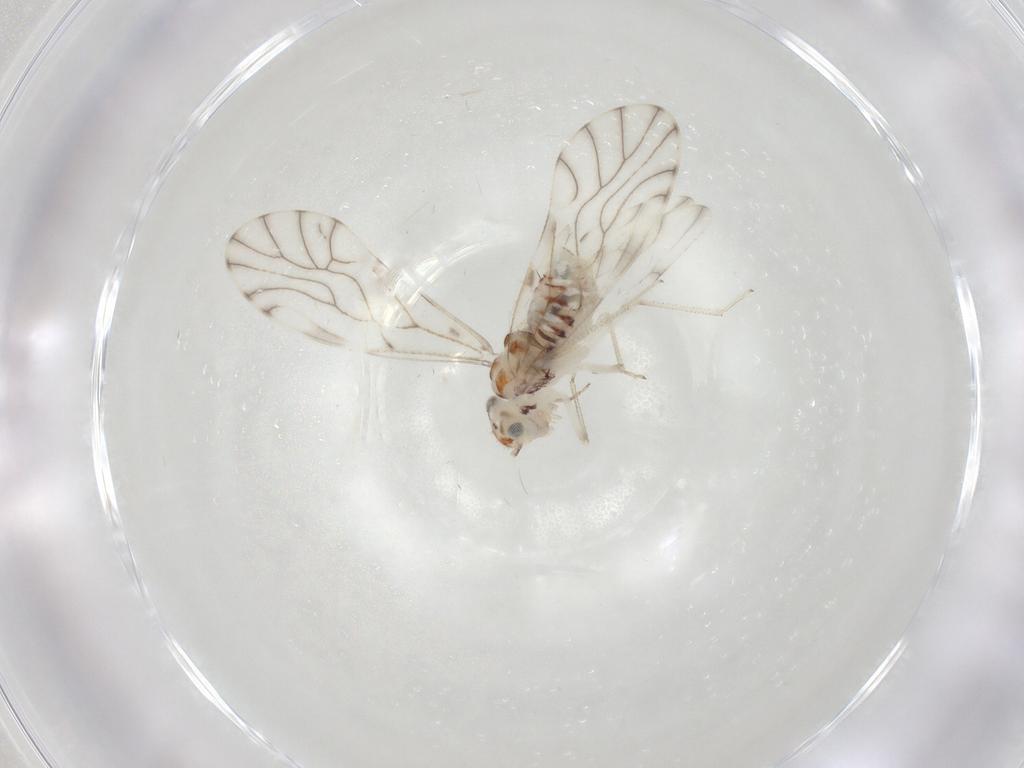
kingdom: Animalia
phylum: Arthropoda
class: Insecta
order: Psocodea
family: Philotarsidae
